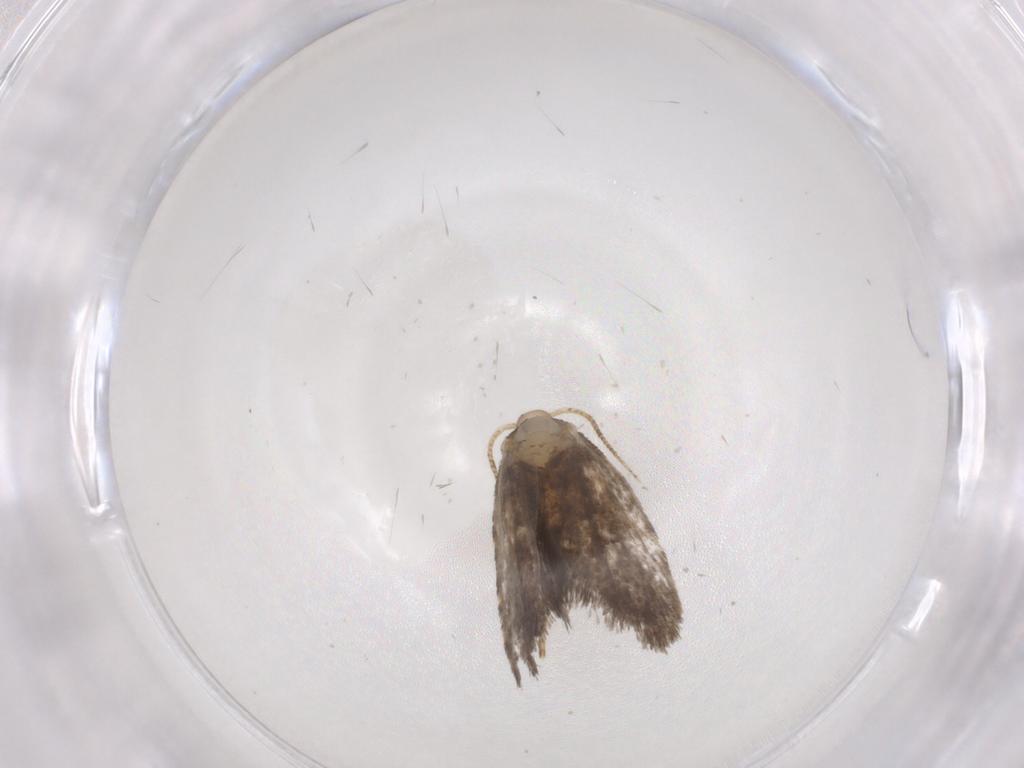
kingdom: Animalia
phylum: Arthropoda
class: Insecta
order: Lepidoptera
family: Psychidae
